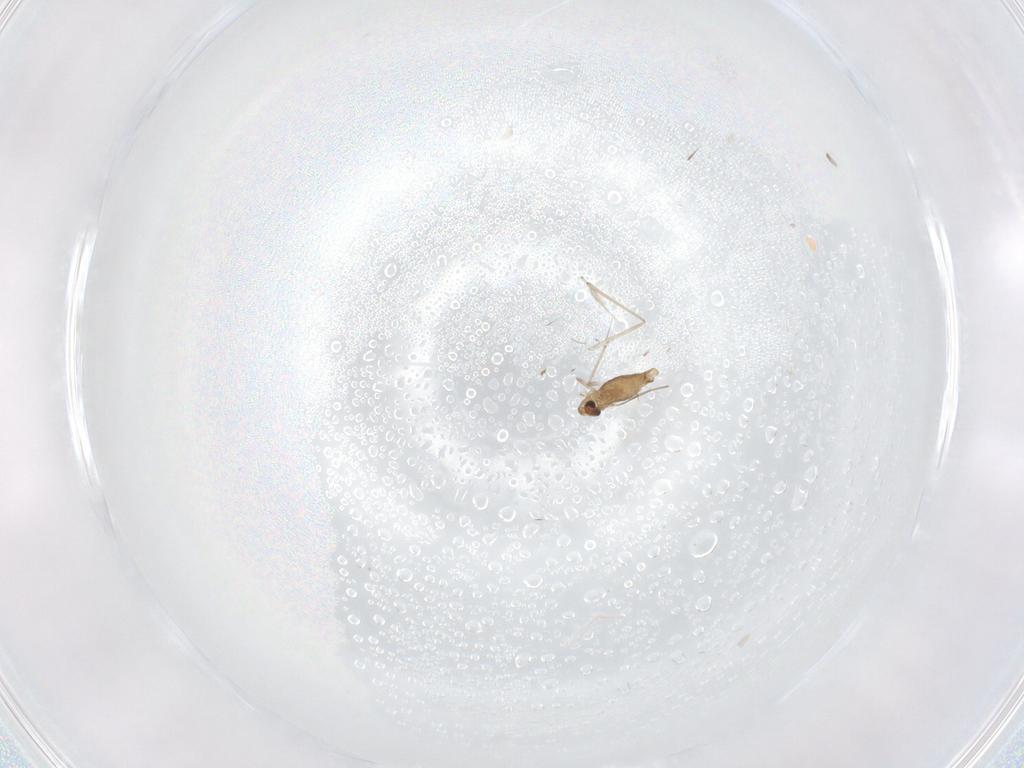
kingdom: Animalia
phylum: Arthropoda
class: Insecta
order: Diptera
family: Chironomidae
